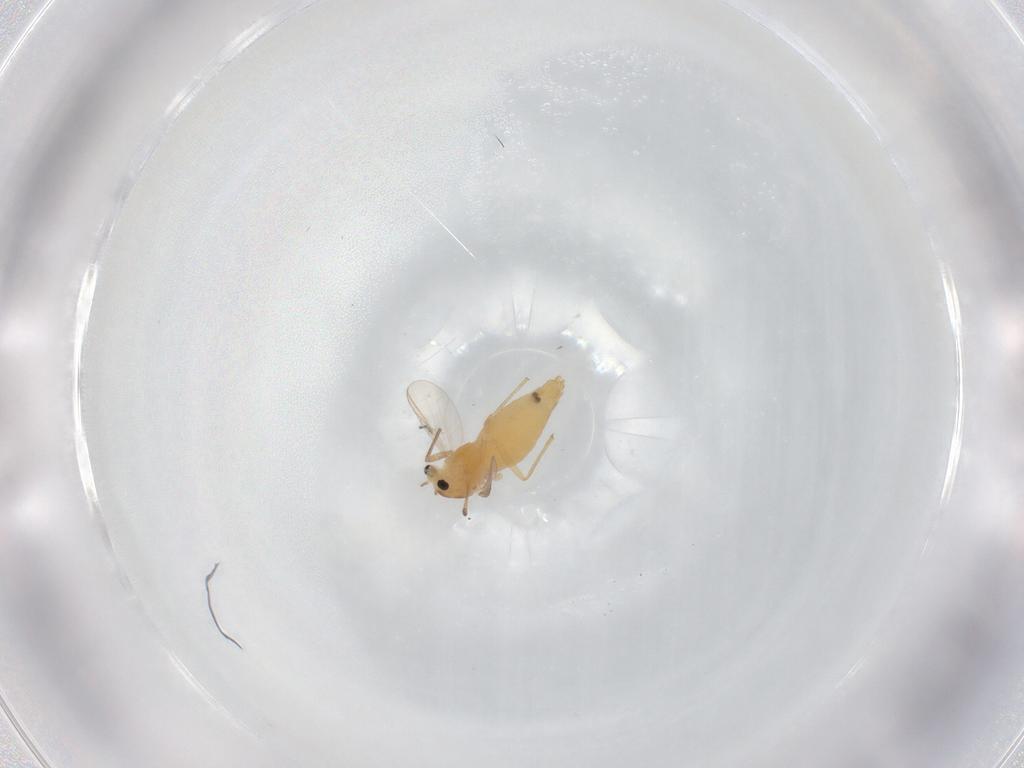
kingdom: Animalia
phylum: Arthropoda
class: Insecta
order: Diptera
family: Chironomidae
